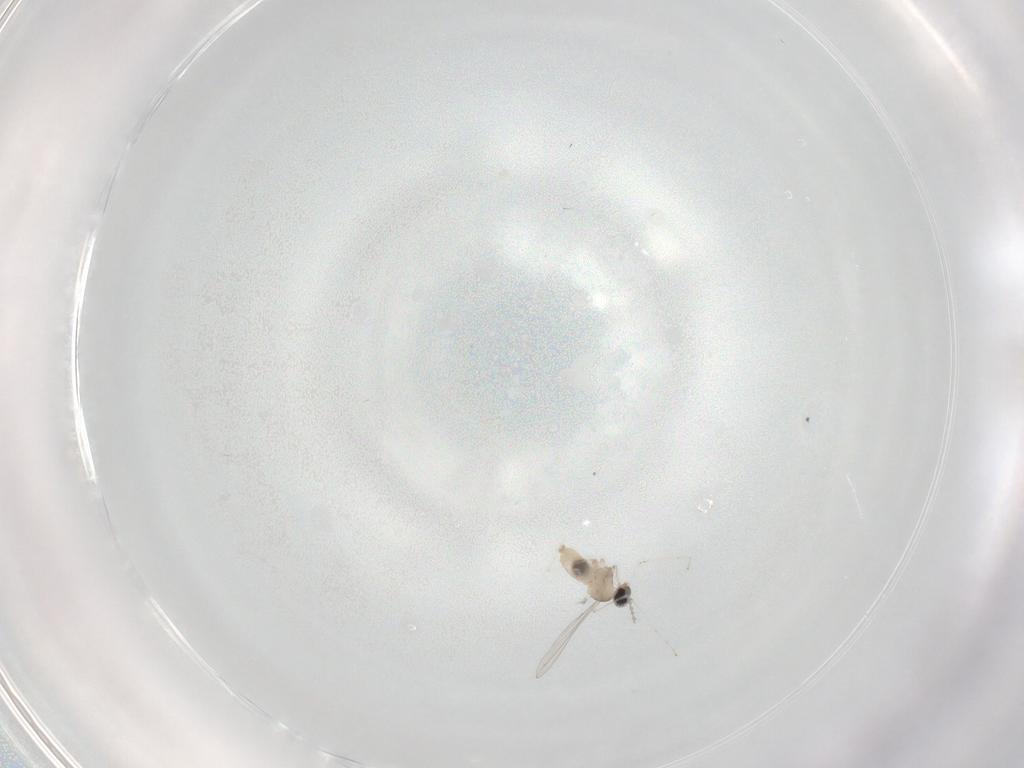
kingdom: Animalia
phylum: Arthropoda
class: Insecta
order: Diptera
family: Cecidomyiidae
